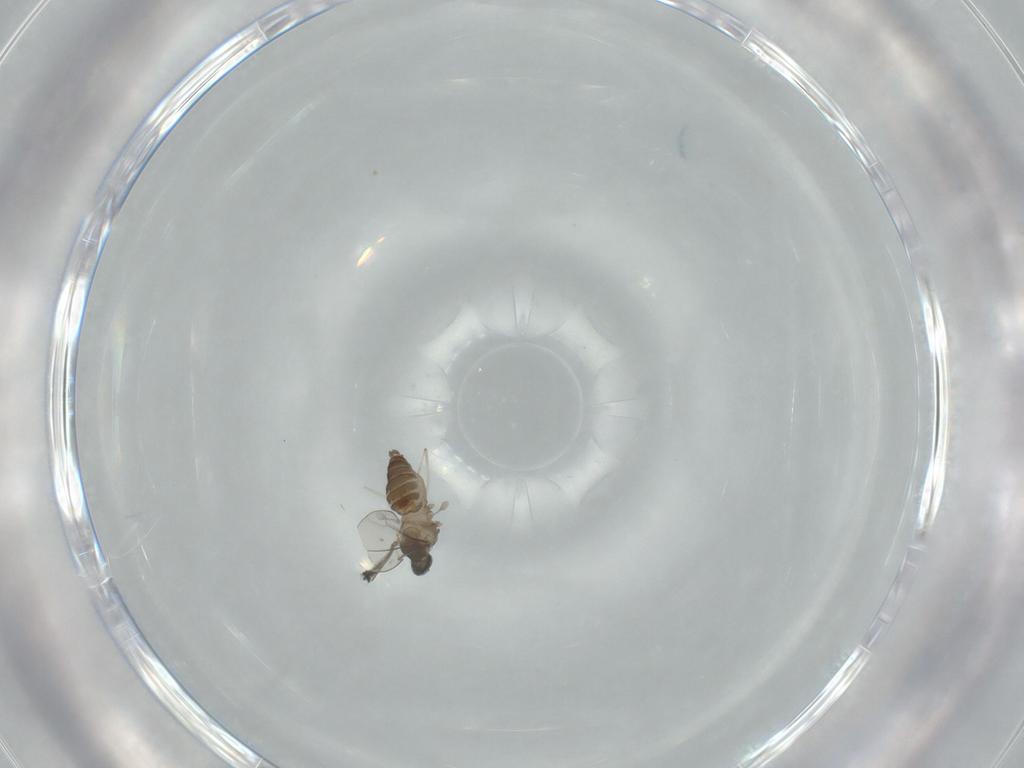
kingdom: Animalia
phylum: Arthropoda
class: Insecta
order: Diptera
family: Cecidomyiidae
